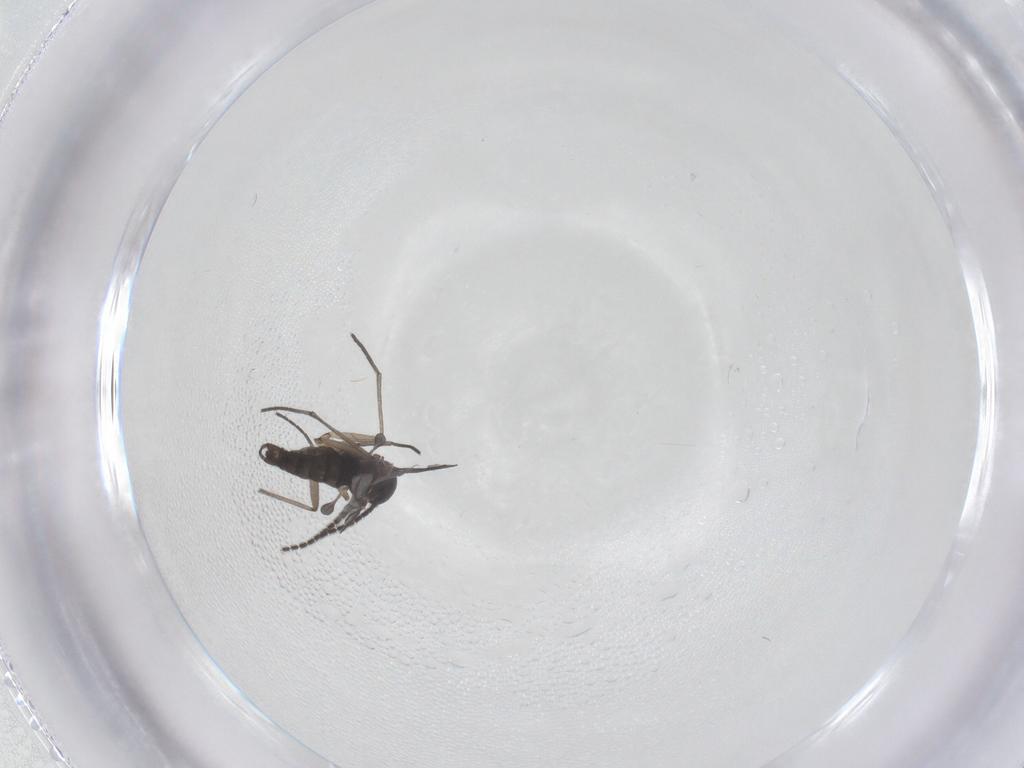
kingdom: Animalia
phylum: Arthropoda
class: Insecta
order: Diptera
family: Sciaridae
